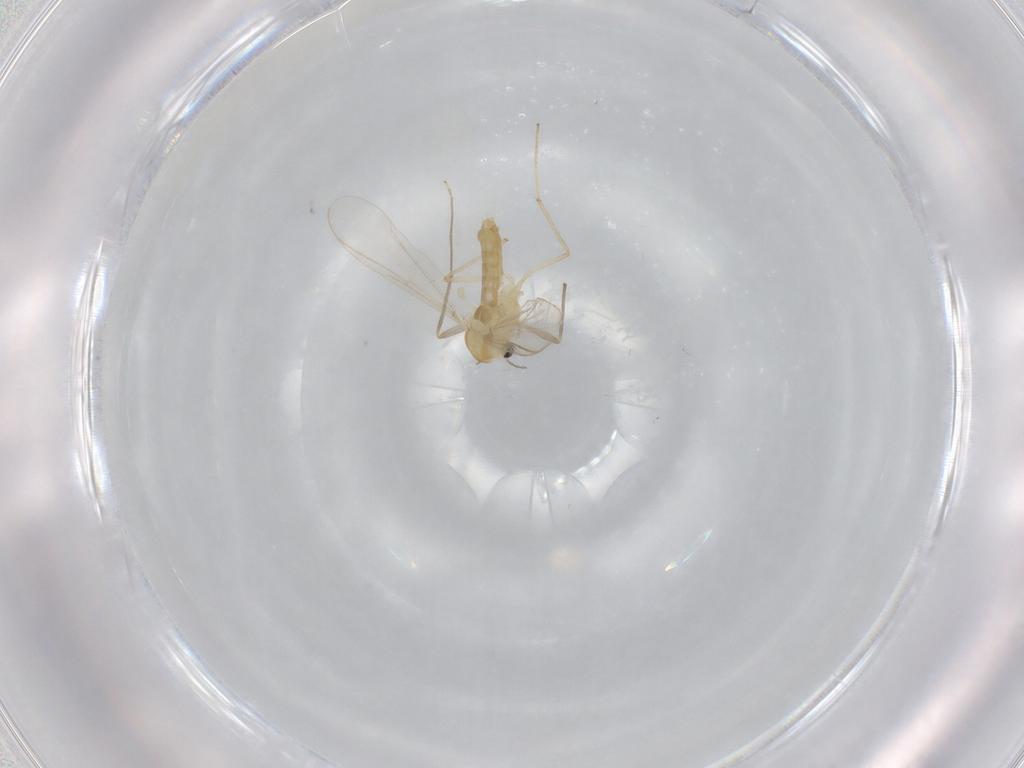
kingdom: Animalia
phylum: Arthropoda
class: Insecta
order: Diptera
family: Chironomidae
